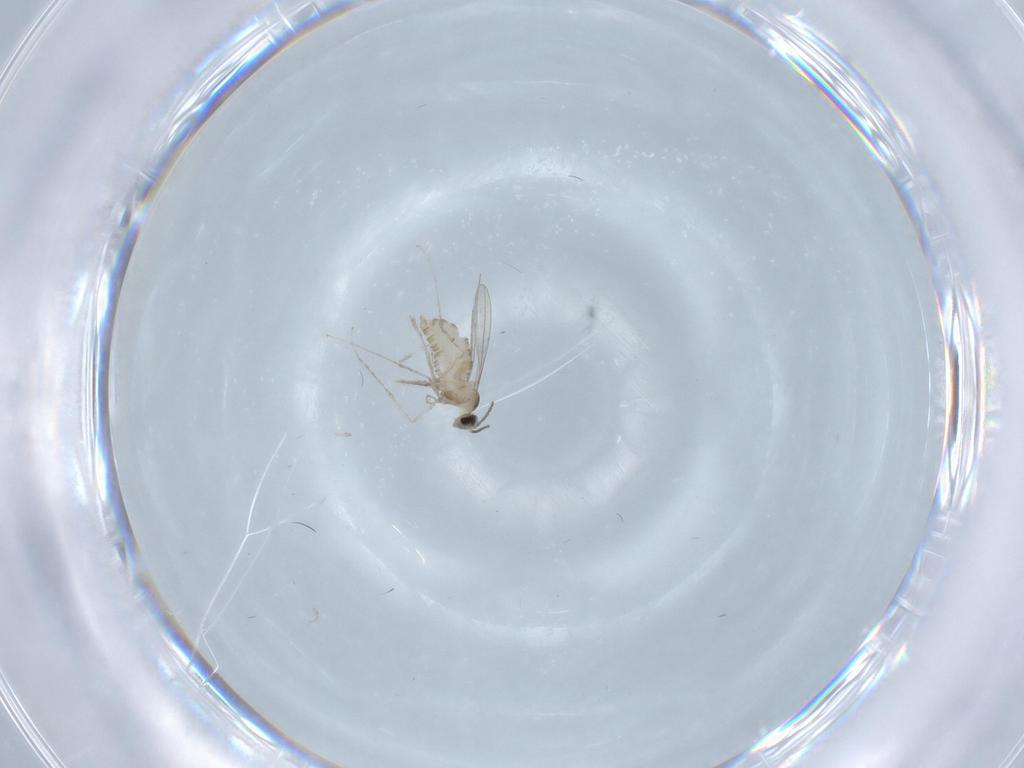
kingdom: Animalia
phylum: Arthropoda
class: Insecta
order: Diptera
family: Cecidomyiidae
